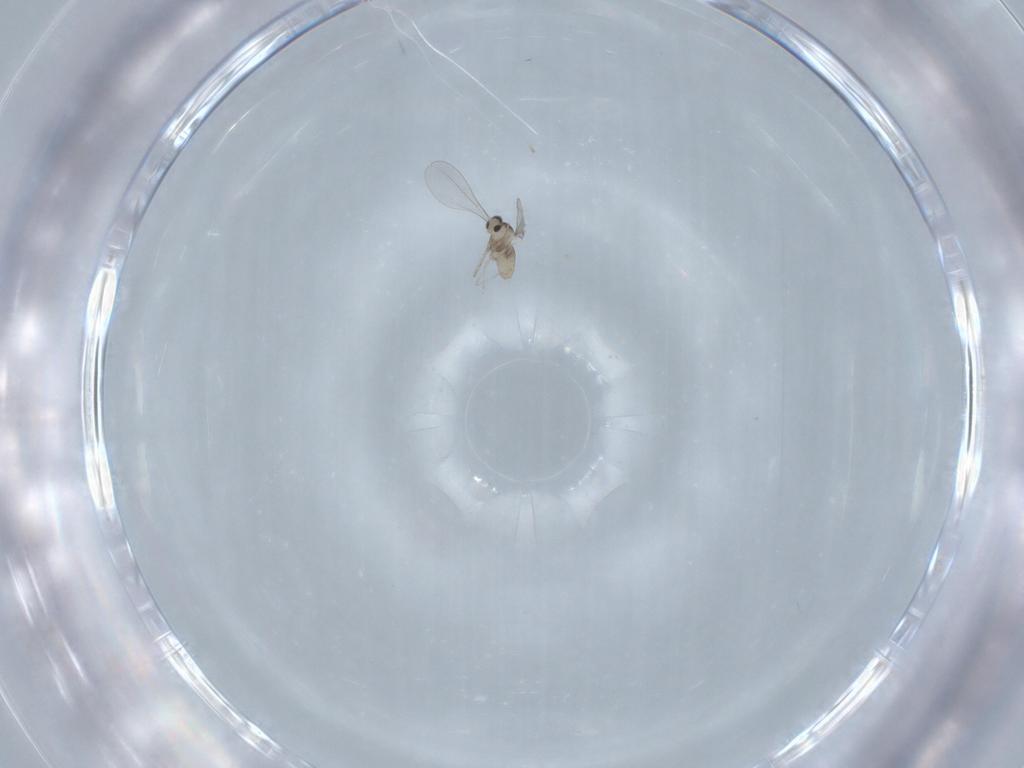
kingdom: Animalia
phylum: Arthropoda
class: Insecta
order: Diptera
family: Cecidomyiidae
